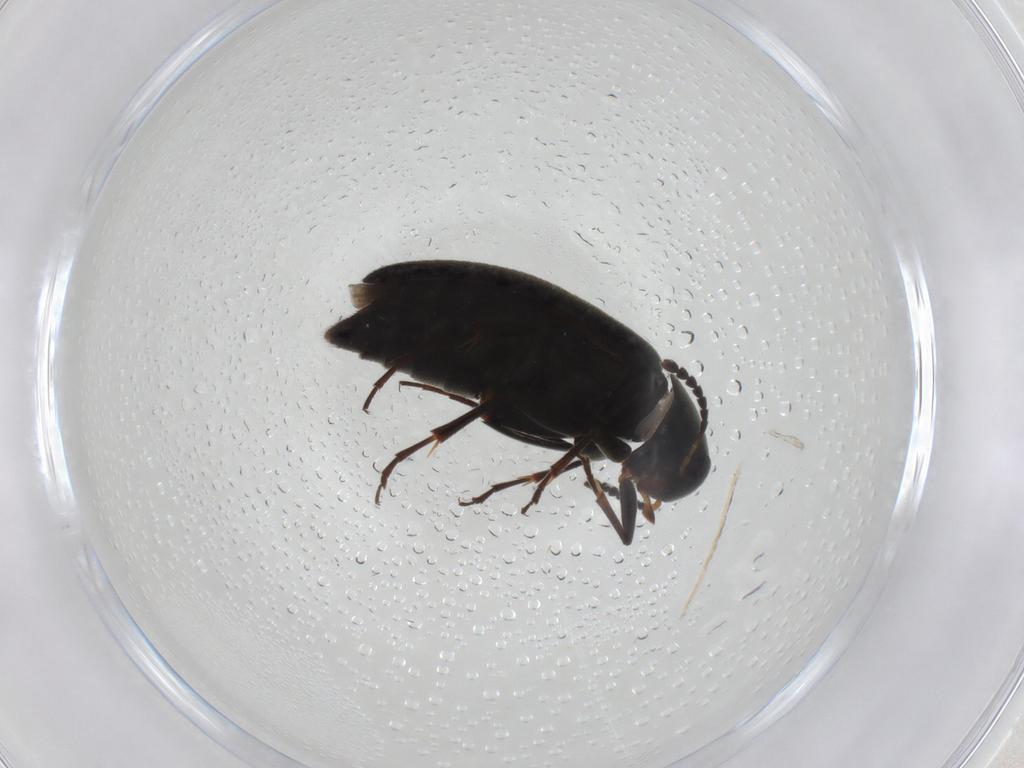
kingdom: Animalia
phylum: Arthropoda
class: Insecta
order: Coleoptera
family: Scraptiidae
